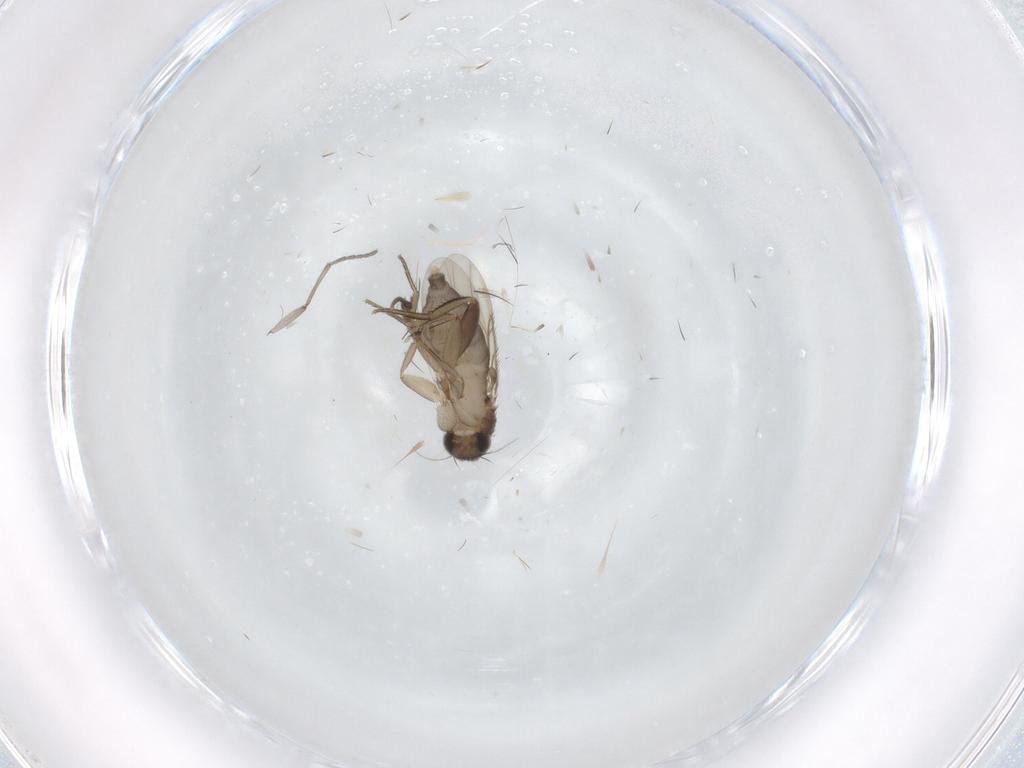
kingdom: Animalia
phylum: Arthropoda
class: Insecta
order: Diptera
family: Phoridae
